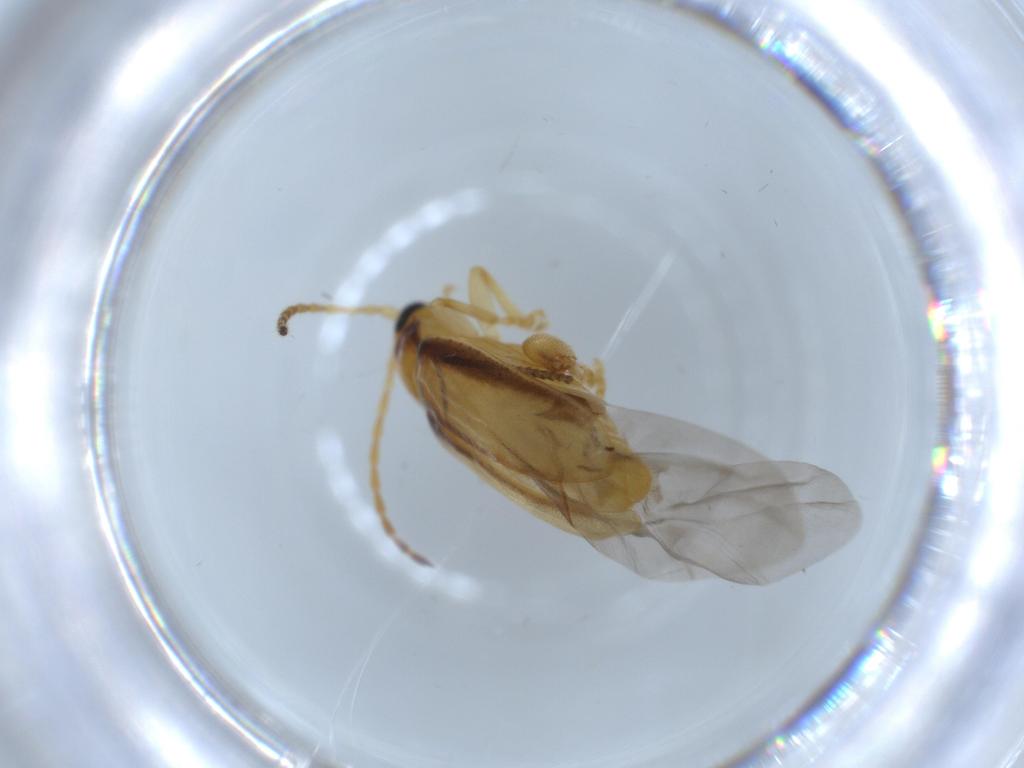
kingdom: Animalia
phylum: Arthropoda
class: Insecta
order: Coleoptera
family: Chrysomelidae
